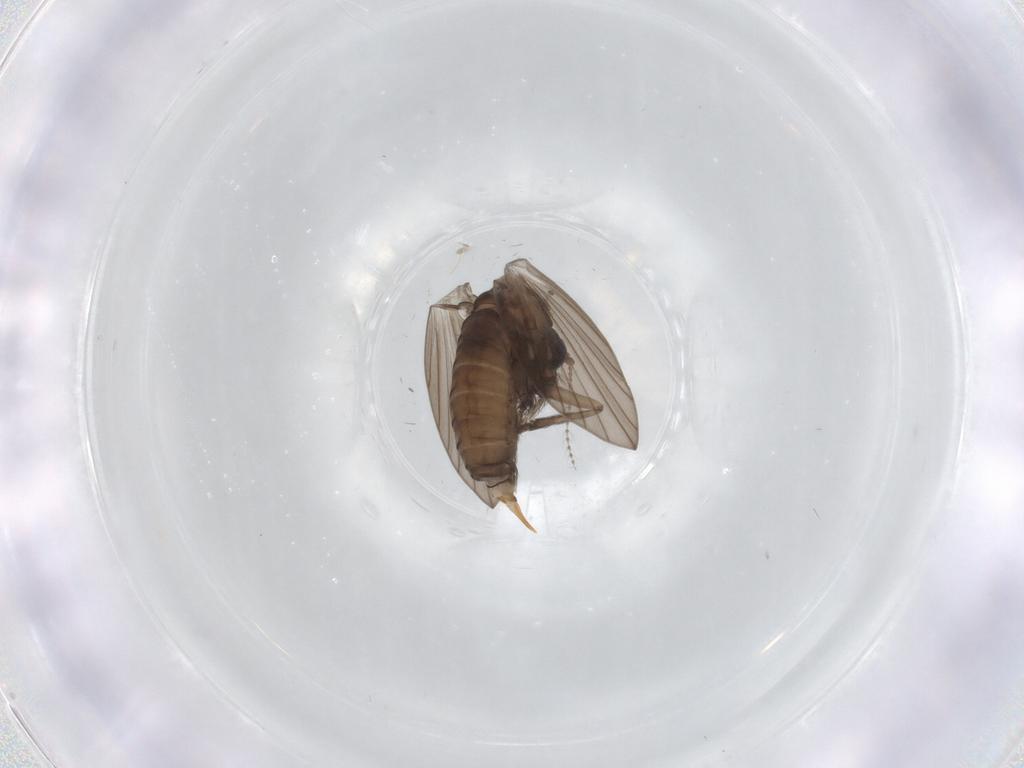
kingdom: Animalia
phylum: Arthropoda
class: Insecta
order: Diptera
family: Psychodidae
